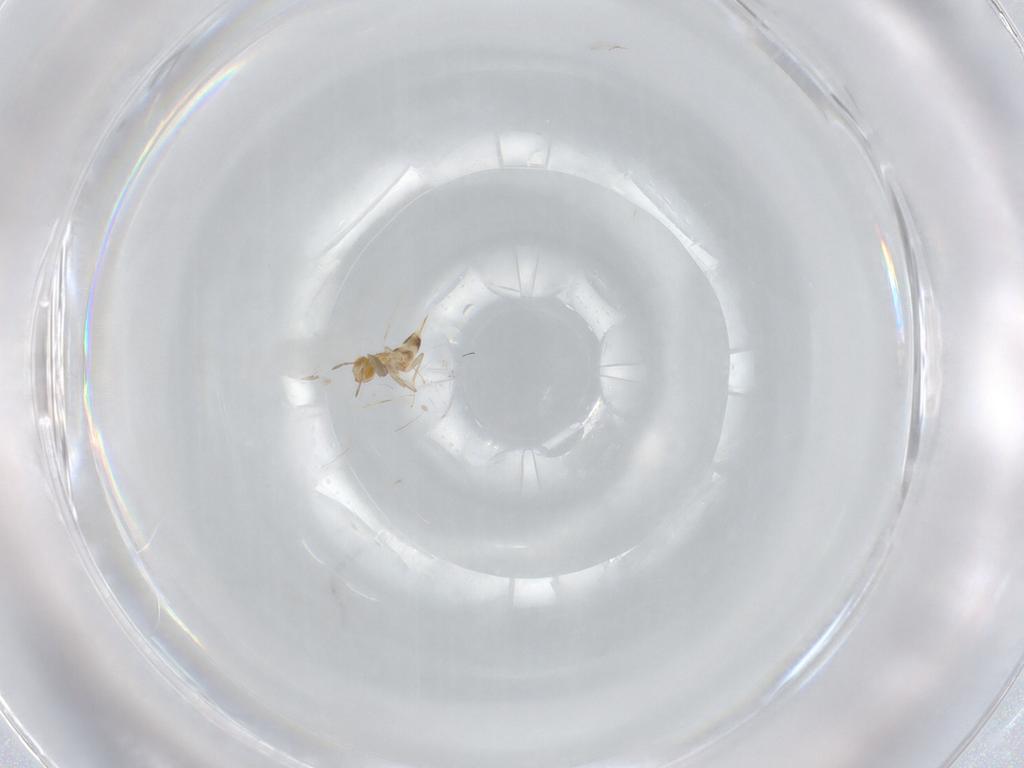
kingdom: Animalia
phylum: Arthropoda
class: Insecta
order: Hymenoptera
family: Aphelinidae
